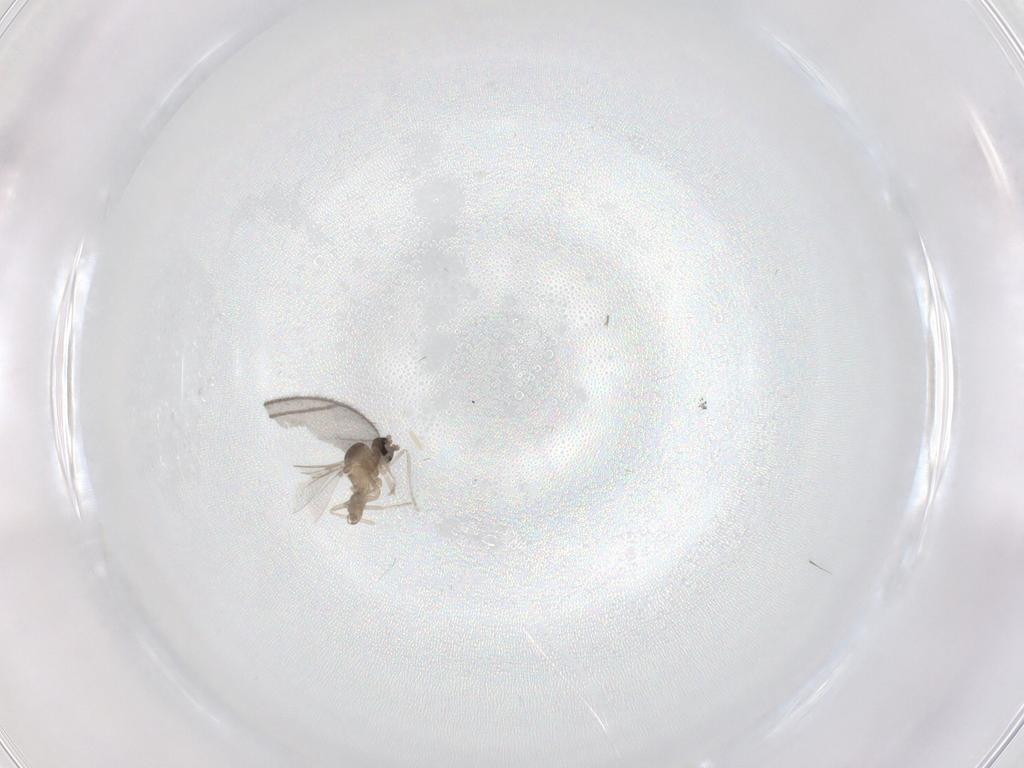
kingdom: Animalia
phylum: Arthropoda
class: Insecta
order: Diptera
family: Cecidomyiidae
